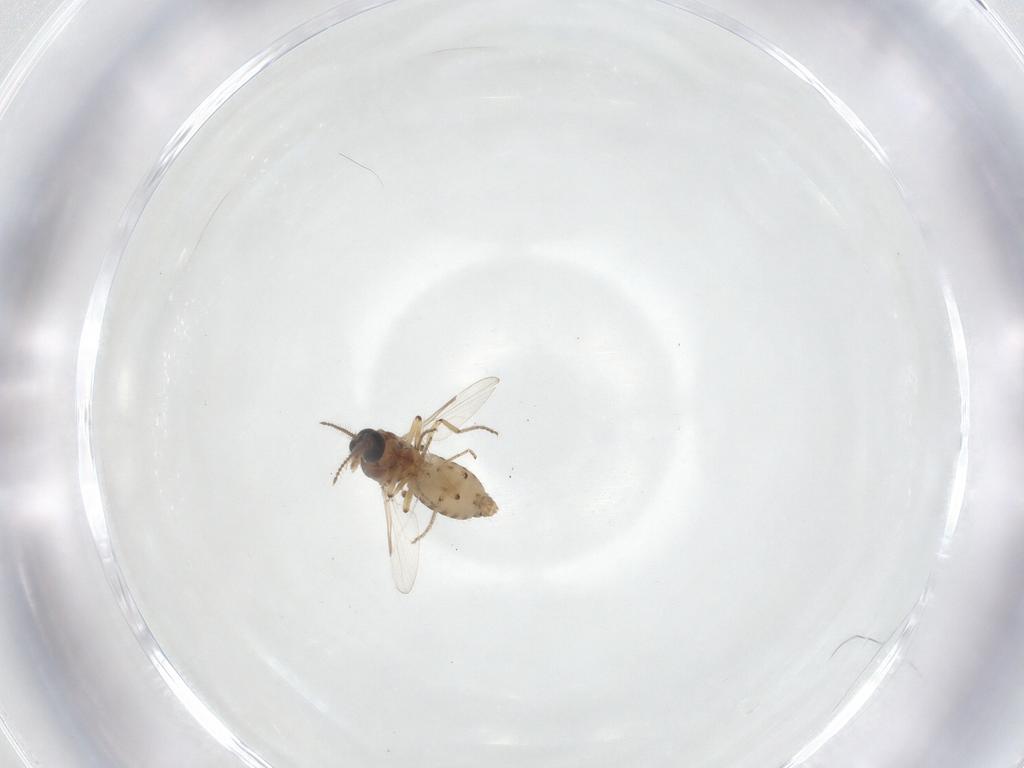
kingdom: Animalia
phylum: Arthropoda
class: Insecta
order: Diptera
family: Ceratopogonidae
